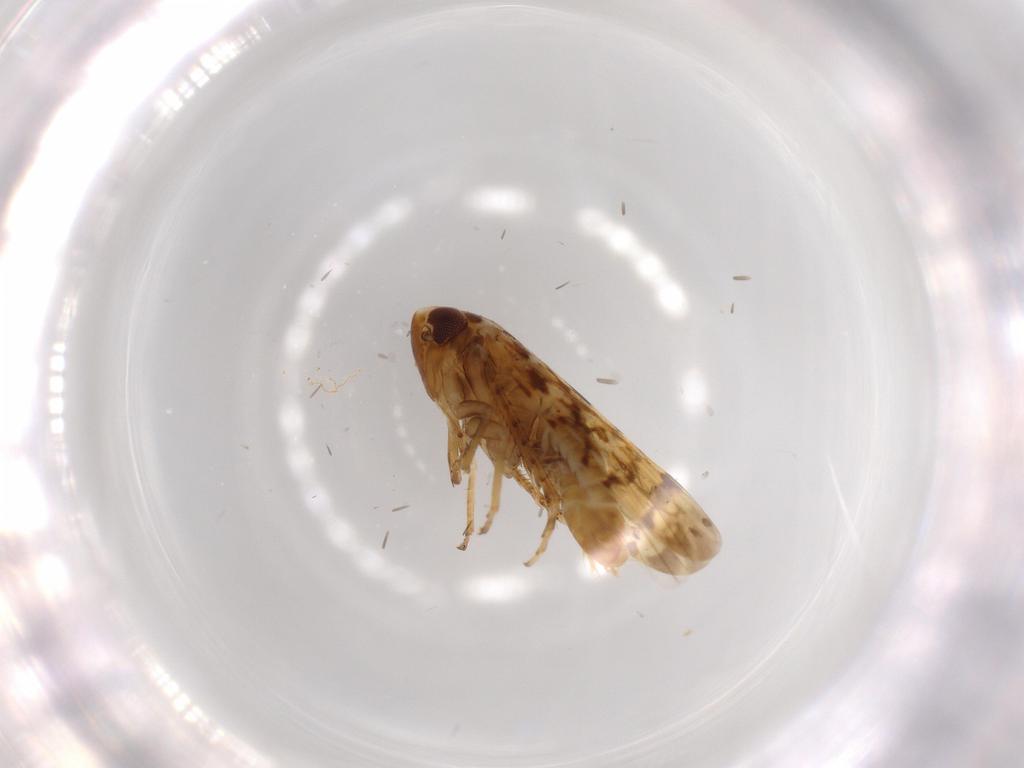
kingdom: Animalia
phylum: Arthropoda
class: Insecta
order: Hemiptera
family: Cicadellidae
